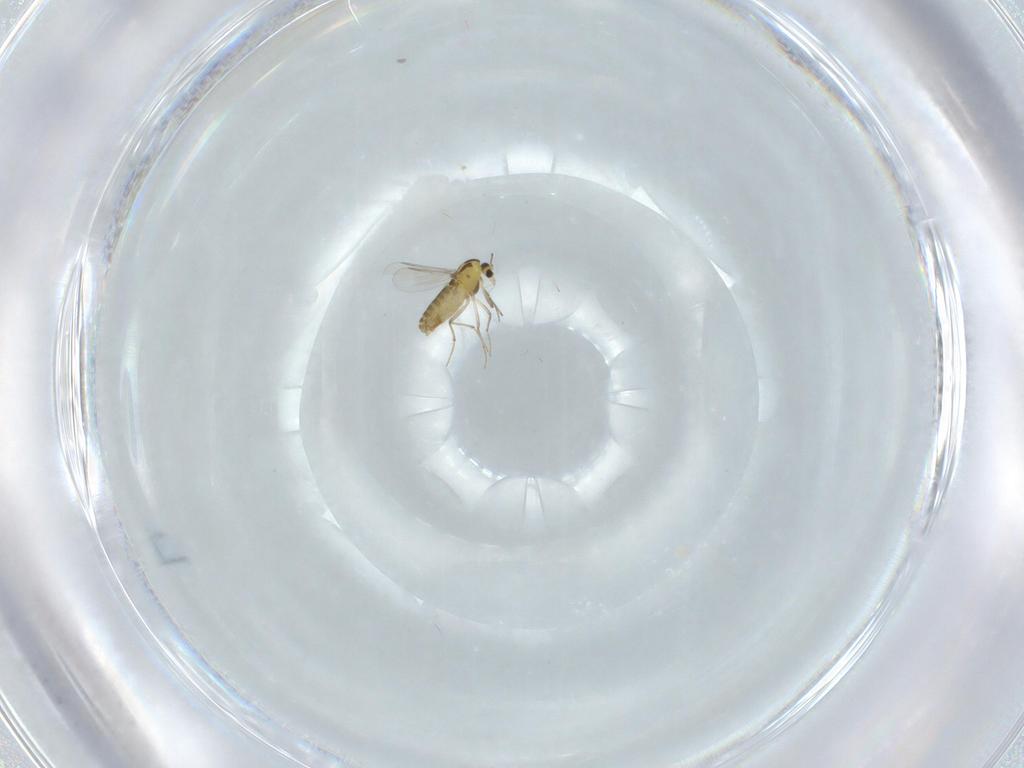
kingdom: Animalia
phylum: Arthropoda
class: Insecta
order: Diptera
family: Chironomidae
